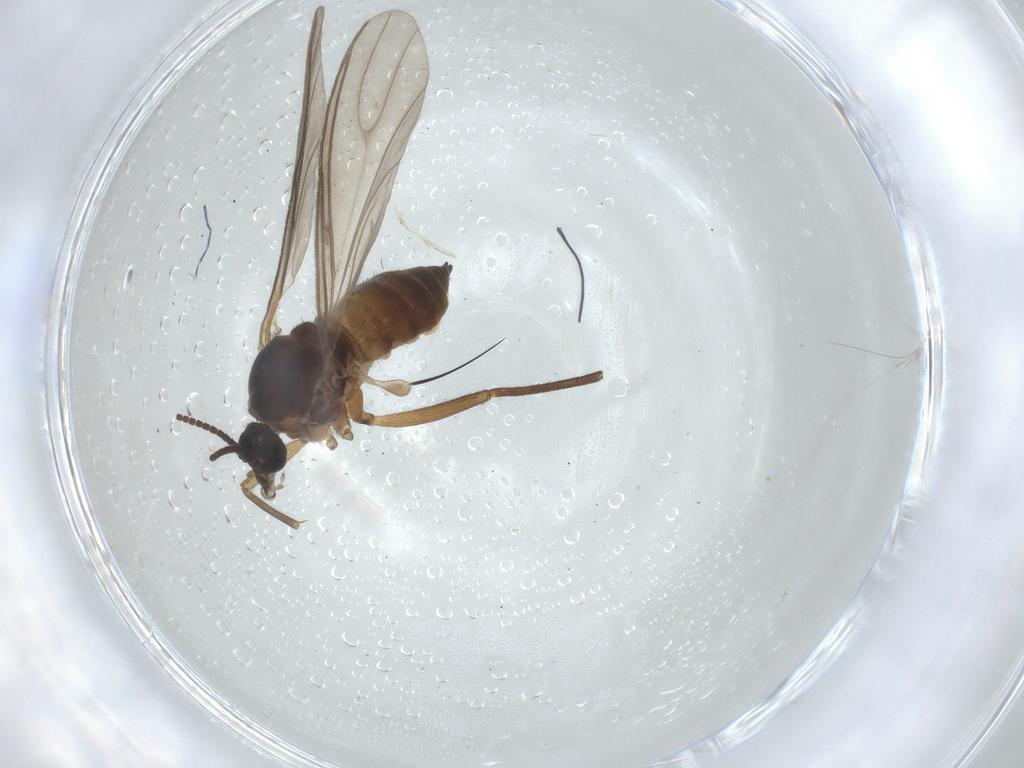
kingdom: Animalia
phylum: Arthropoda
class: Insecta
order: Diptera
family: Sciaridae
